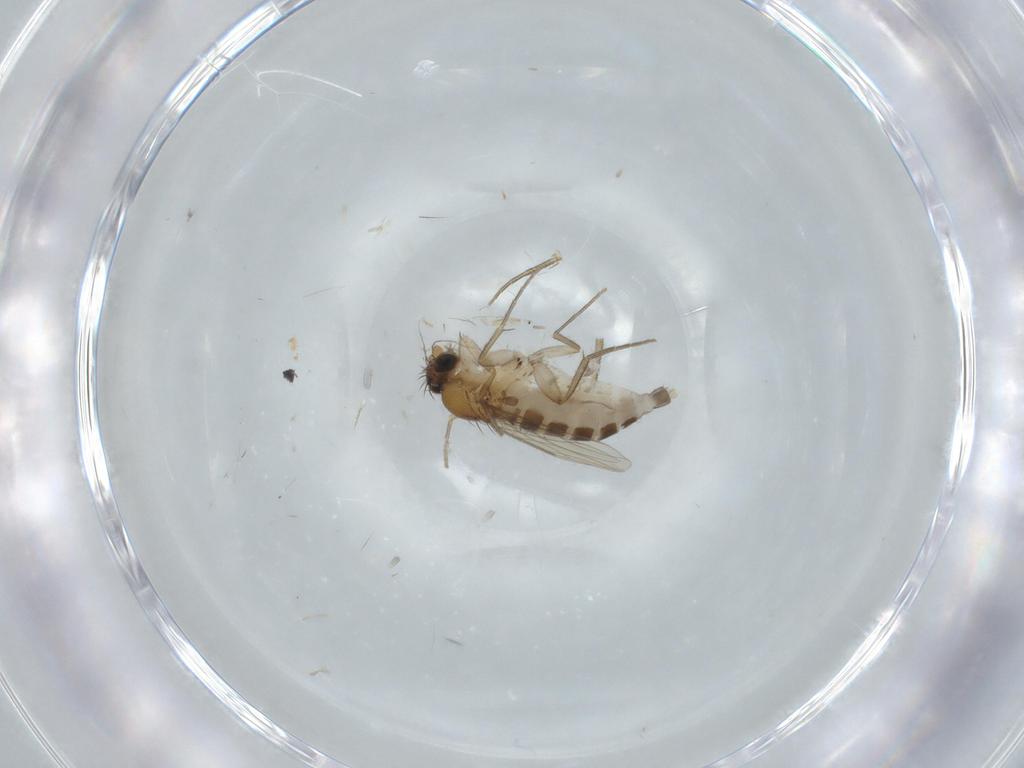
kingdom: Animalia
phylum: Arthropoda
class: Insecta
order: Diptera
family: Phoridae
